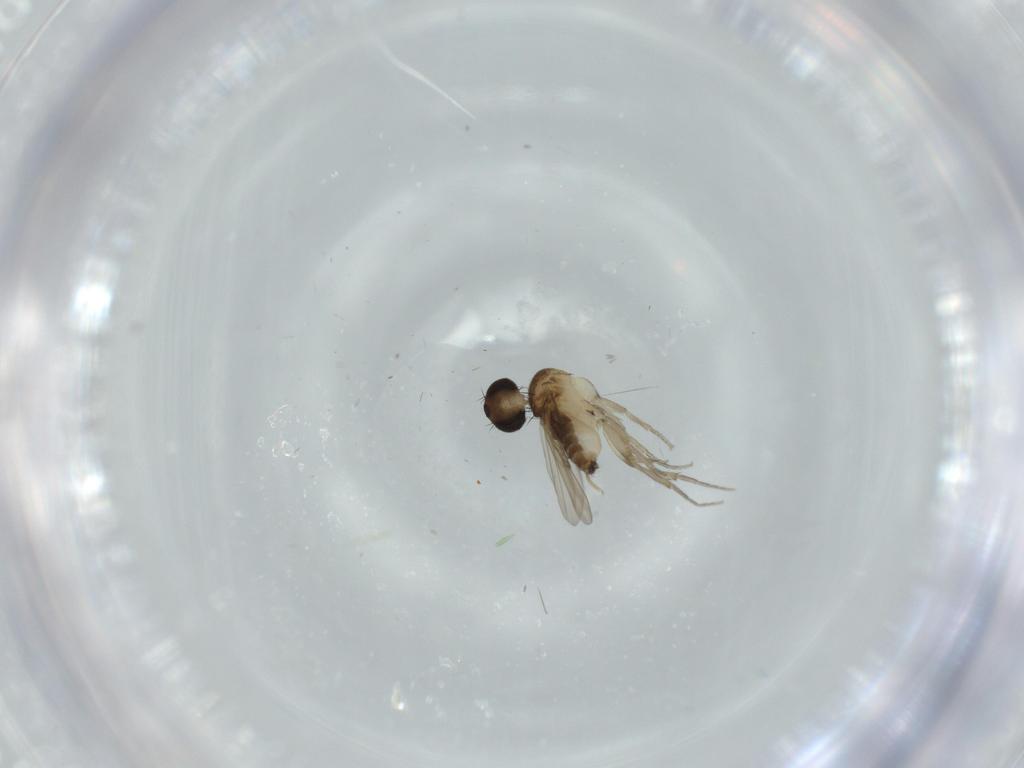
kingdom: Animalia
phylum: Arthropoda
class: Insecta
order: Diptera
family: Phoridae
